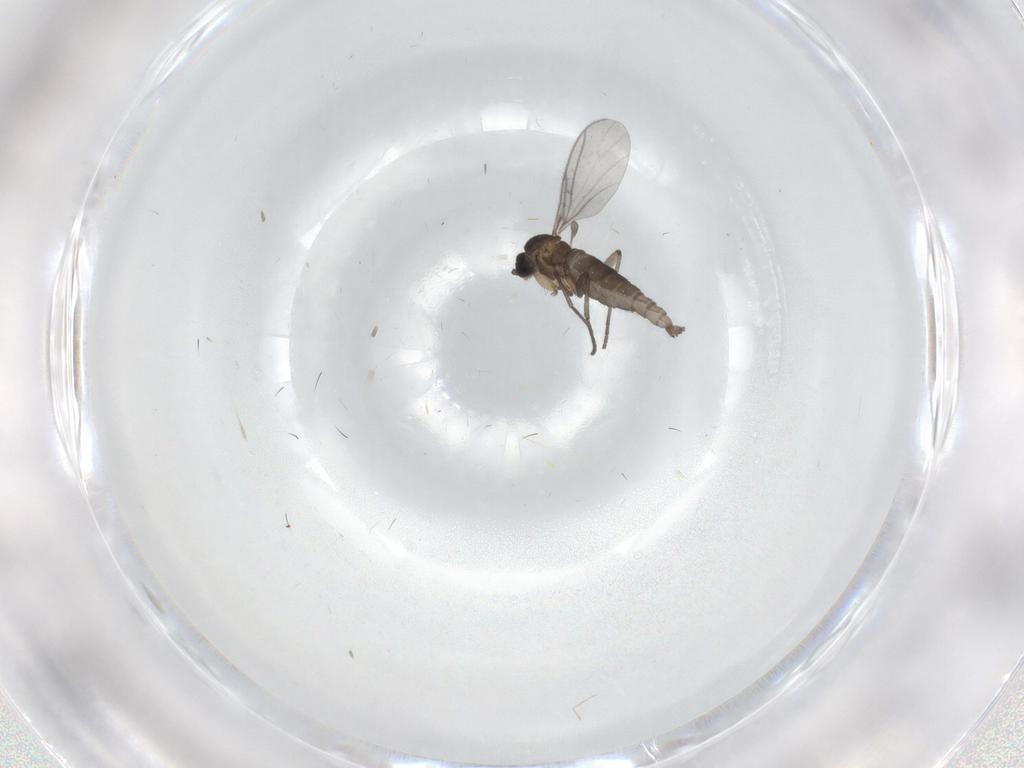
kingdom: Animalia
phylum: Arthropoda
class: Insecta
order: Diptera
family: Sciaridae
